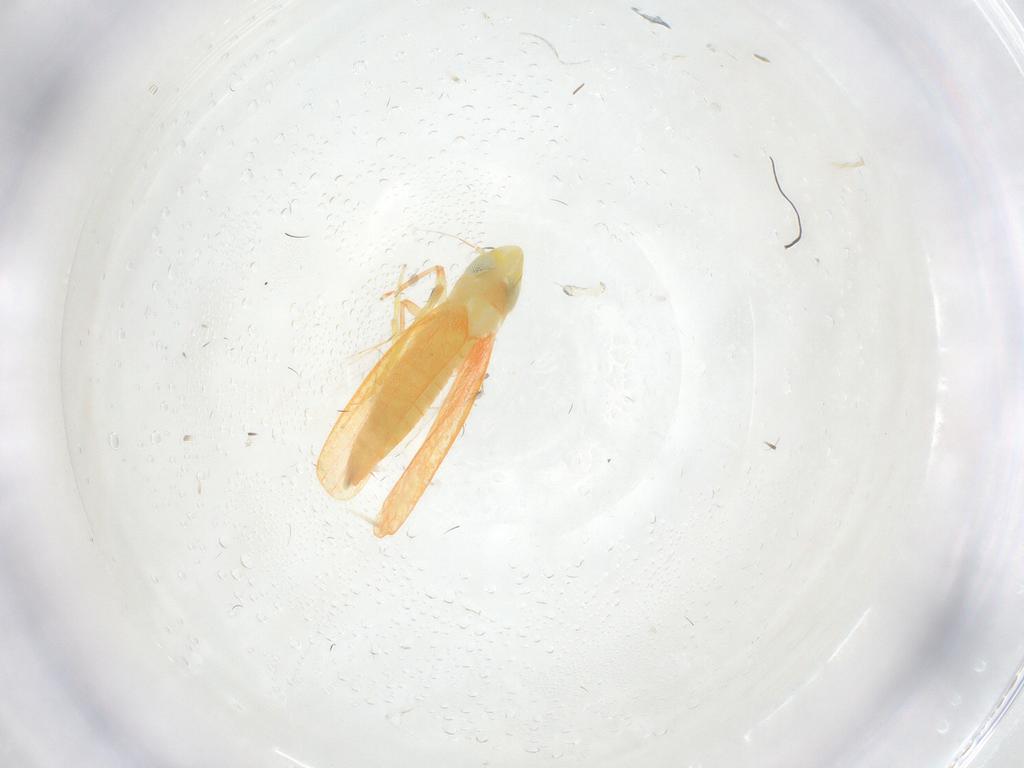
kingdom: Animalia
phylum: Arthropoda
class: Insecta
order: Hemiptera
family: Cicadellidae
